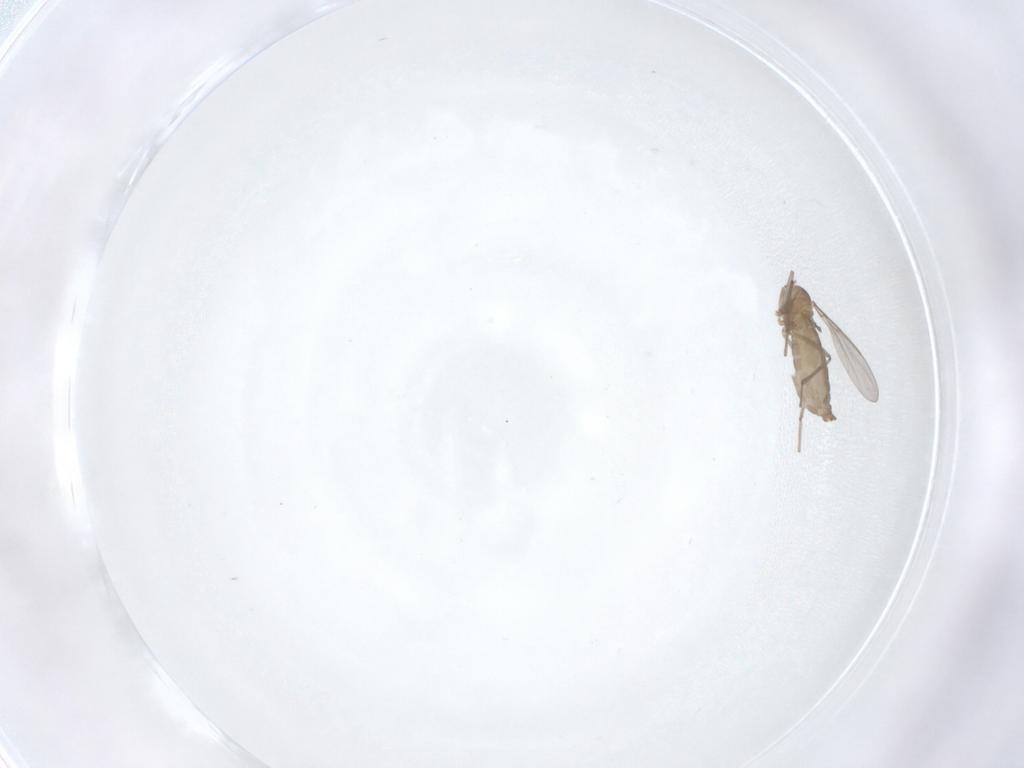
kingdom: Animalia
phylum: Arthropoda
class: Insecta
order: Diptera
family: Cecidomyiidae
